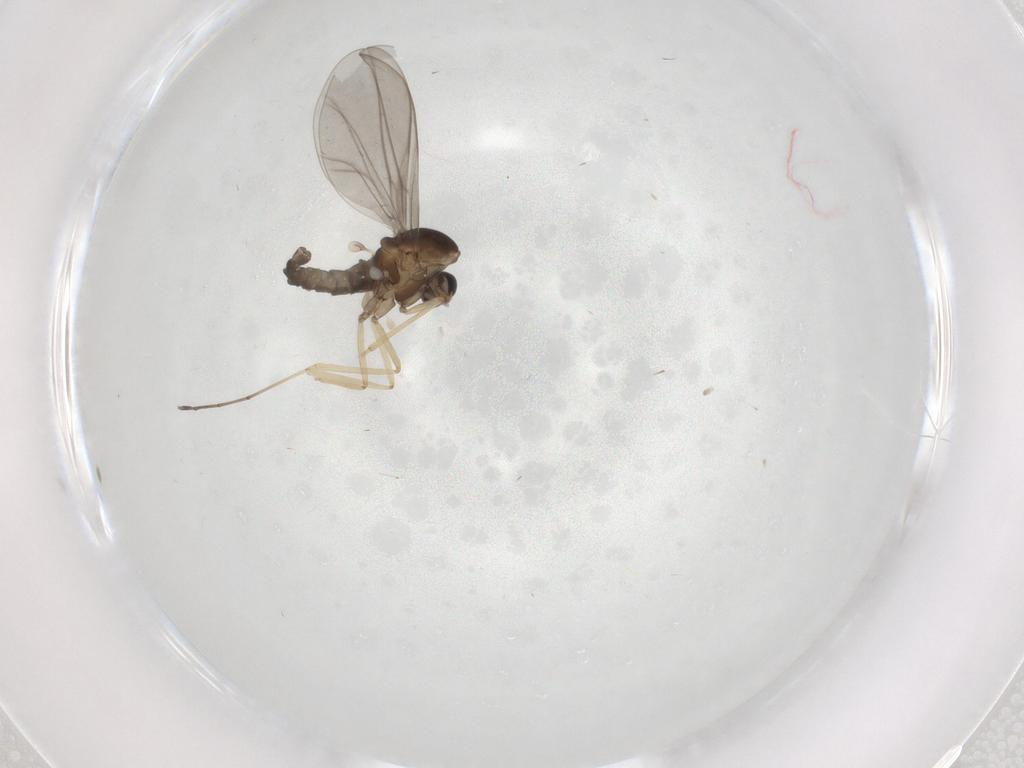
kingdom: Animalia
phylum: Arthropoda
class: Insecta
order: Diptera
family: Cecidomyiidae
